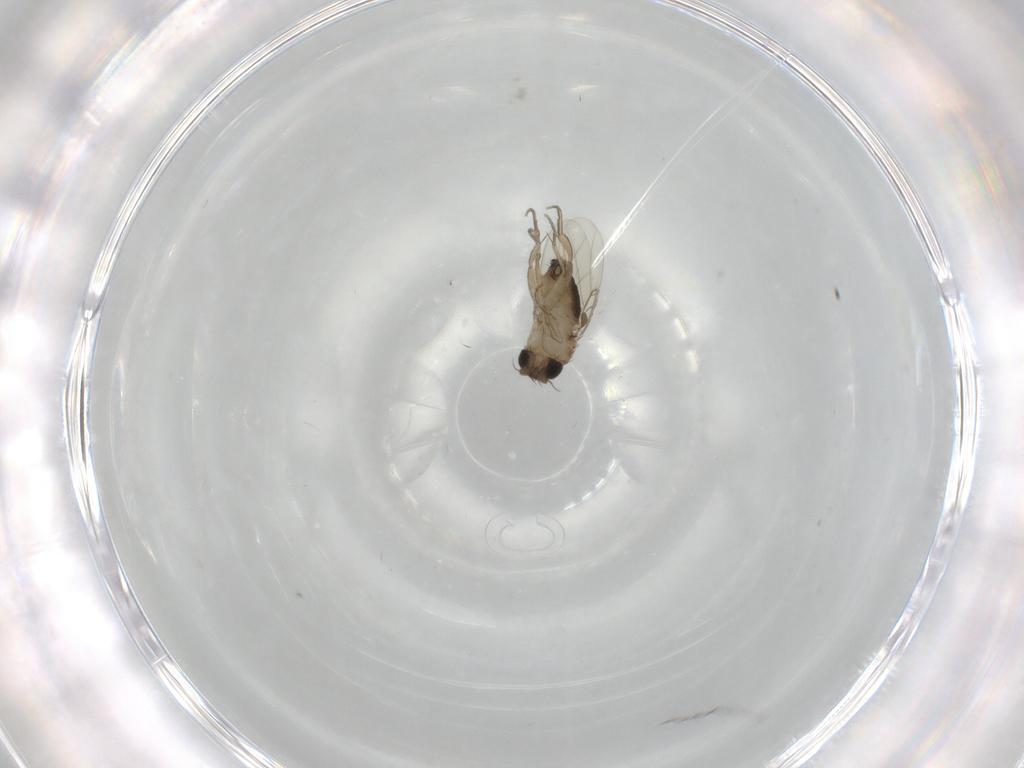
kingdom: Animalia
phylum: Arthropoda
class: Insecta
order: Diptera
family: Phoridae
